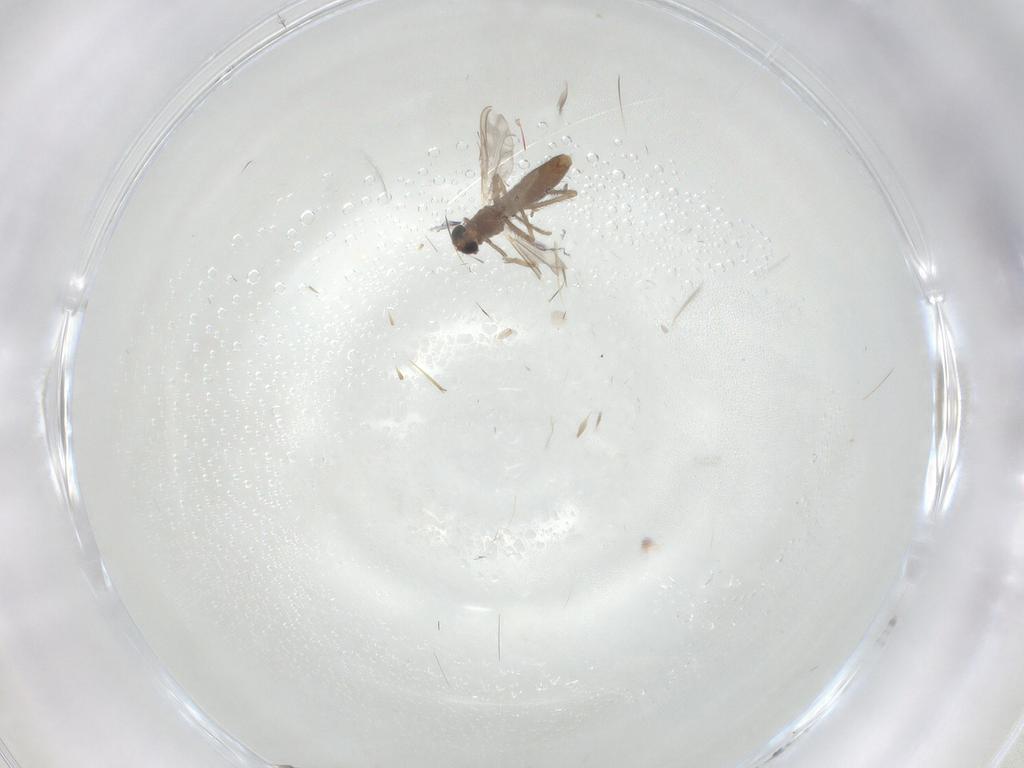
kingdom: Animalia
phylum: Arthropoda
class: Insecta
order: Diptera
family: Chironomidae
